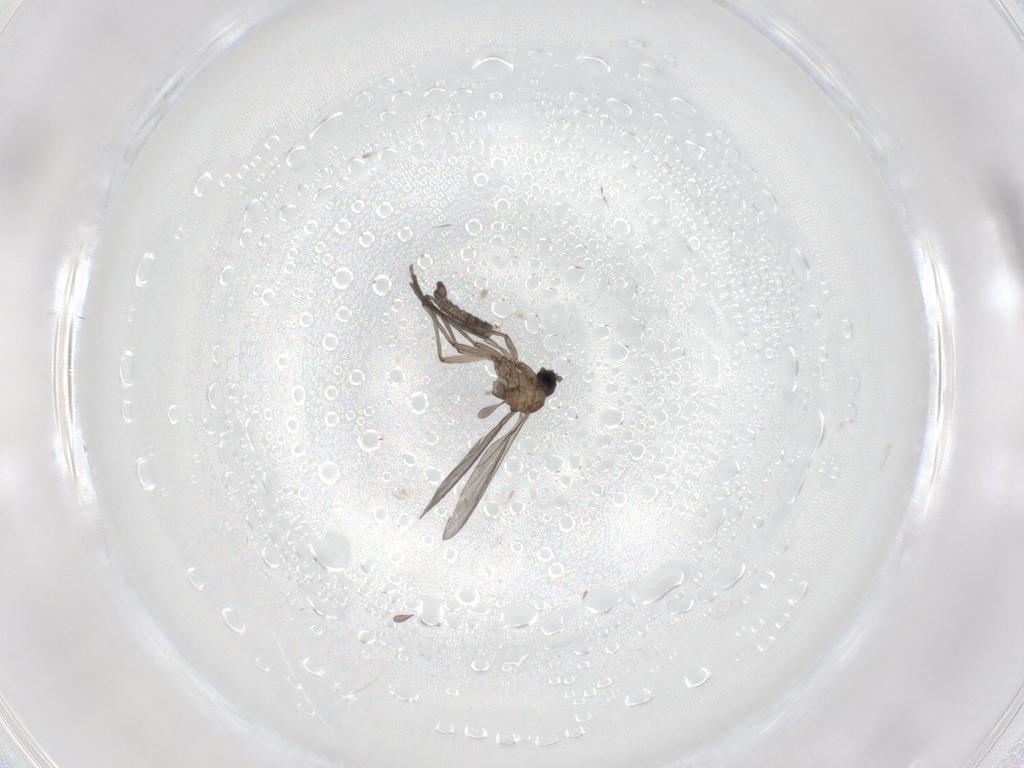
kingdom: Animalia
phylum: Arthropoda
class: Insecta
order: Diptera
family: Sciaridae
